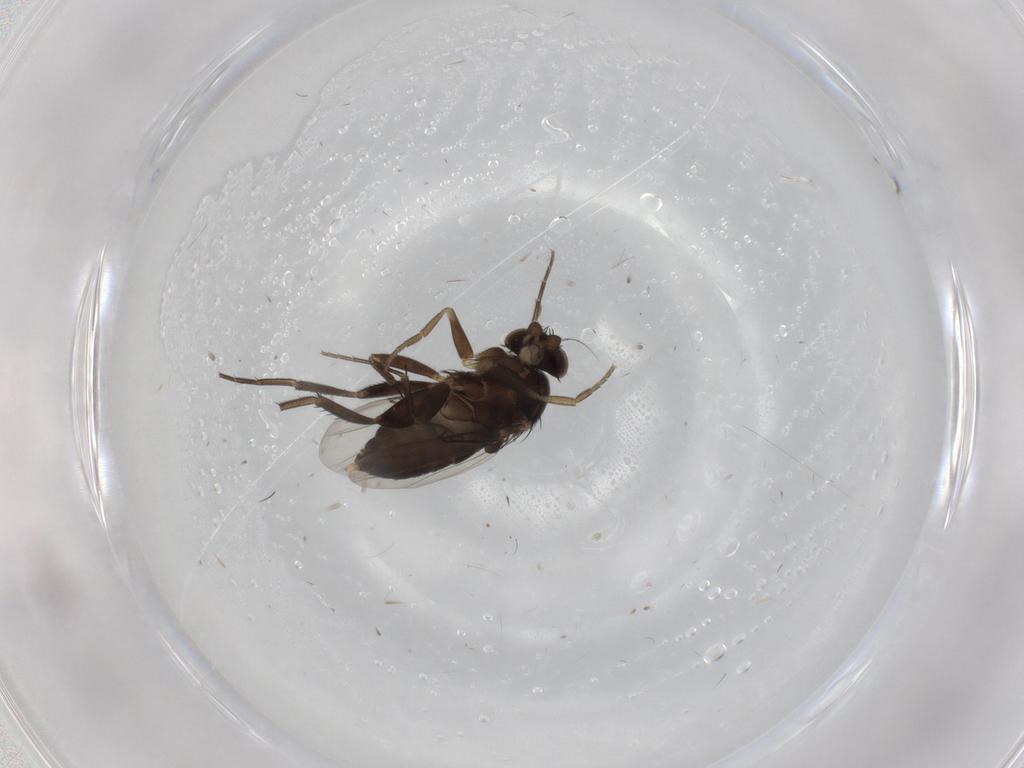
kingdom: Animalia
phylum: Arthropoda
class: Insecta
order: Diptera
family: Phoridae
